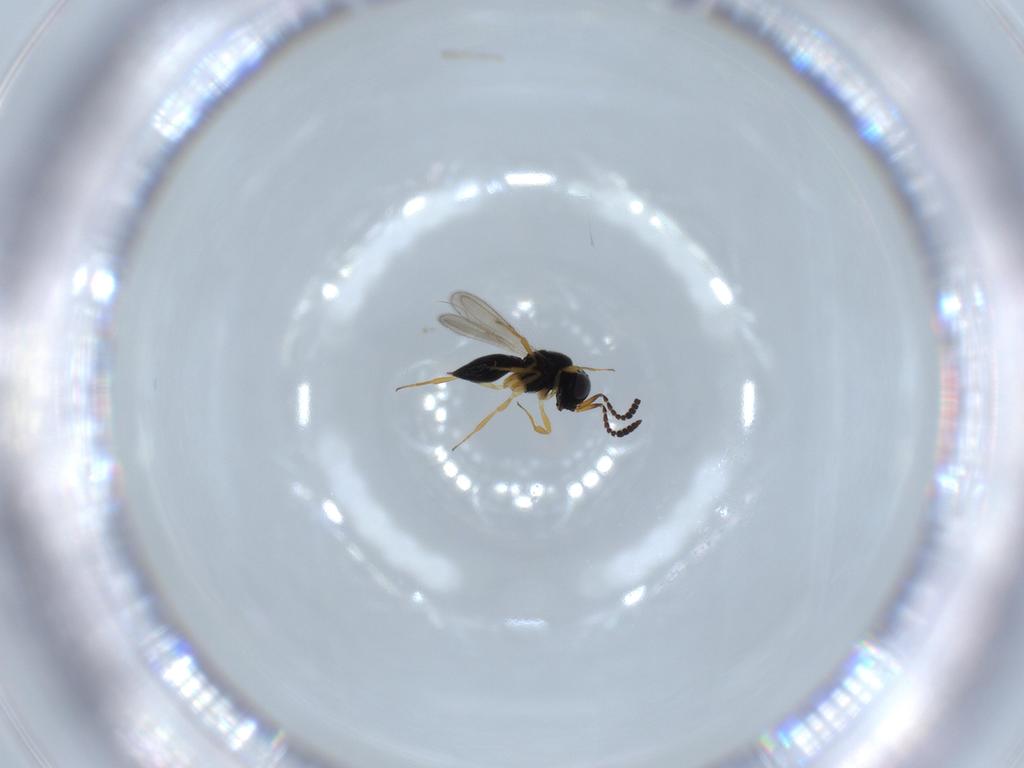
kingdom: Animalia
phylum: Arthropoda
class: Insecta
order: Hymenoptera
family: Scelionidae
